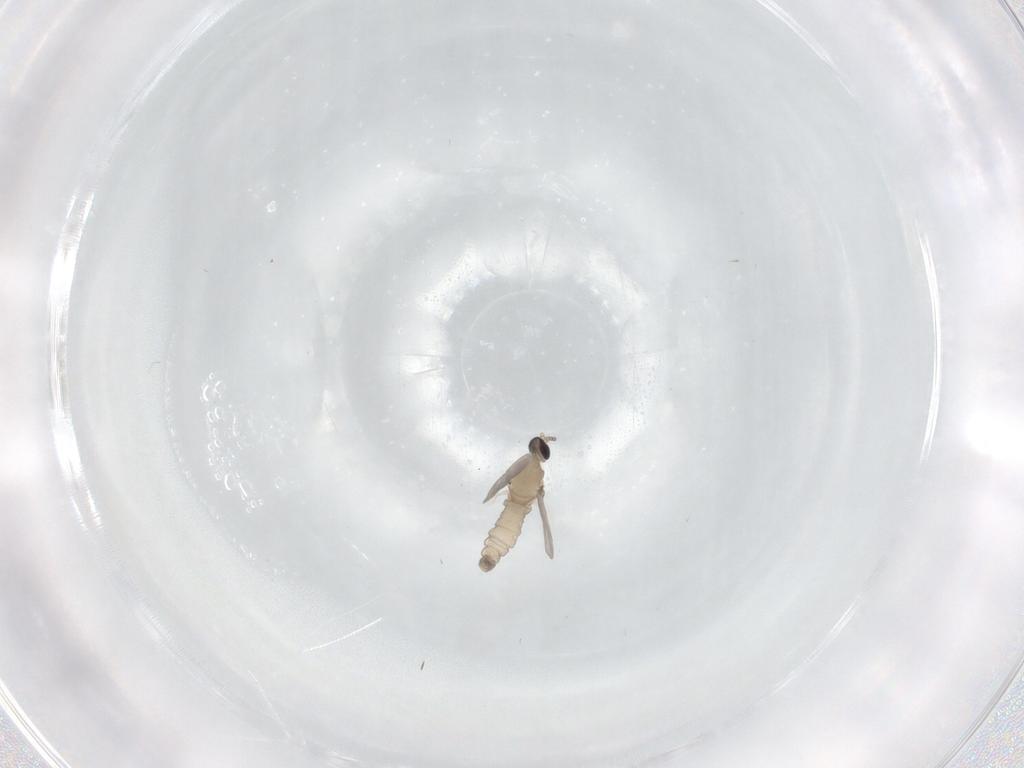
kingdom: Animalia
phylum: Arthropoda
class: Insecta
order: Diptera
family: Cecidomyiidae
